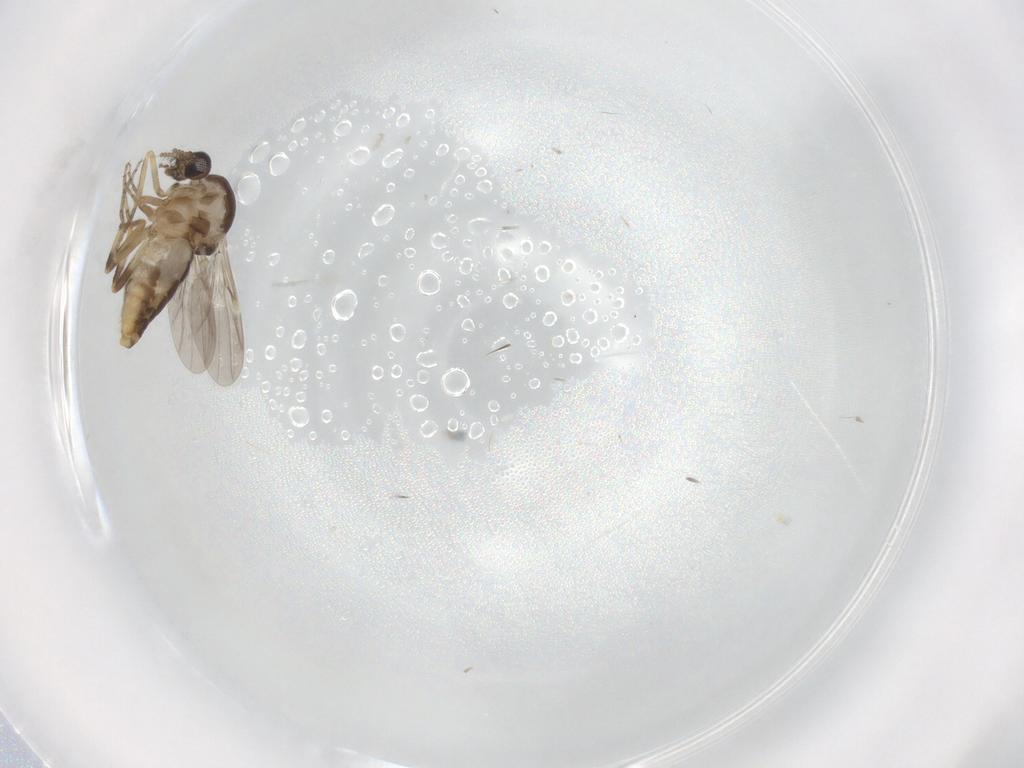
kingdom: Animalia
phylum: Arthropoda
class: Insecta
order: Diptera
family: Ceratopogonidae
